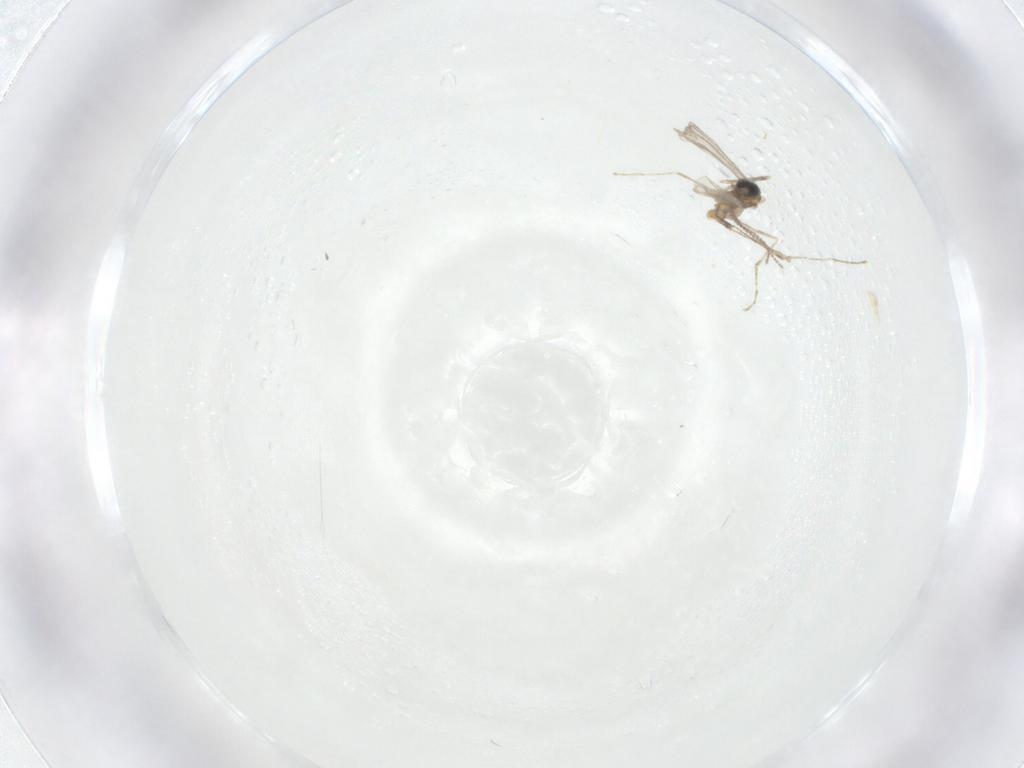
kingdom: Animalia
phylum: Arthropoda
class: Insecta
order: Diptera
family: Cecidomyiidae
